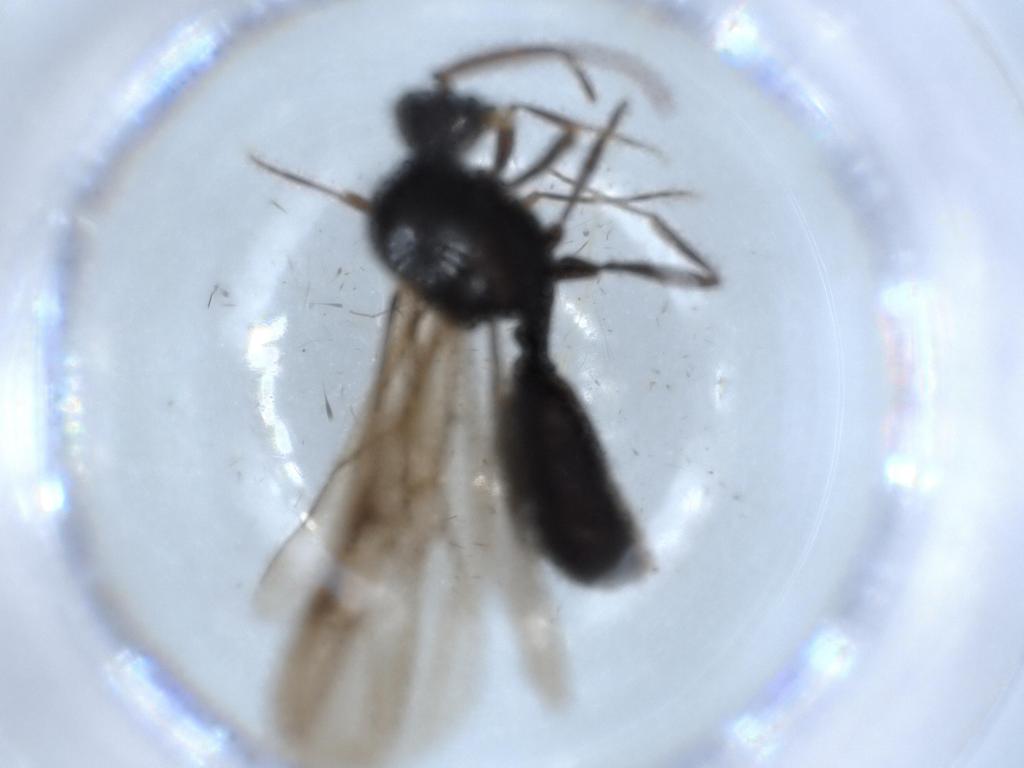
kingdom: Animalia
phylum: Arthropoda
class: Insecta
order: Hymenoptera
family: Formicidae
